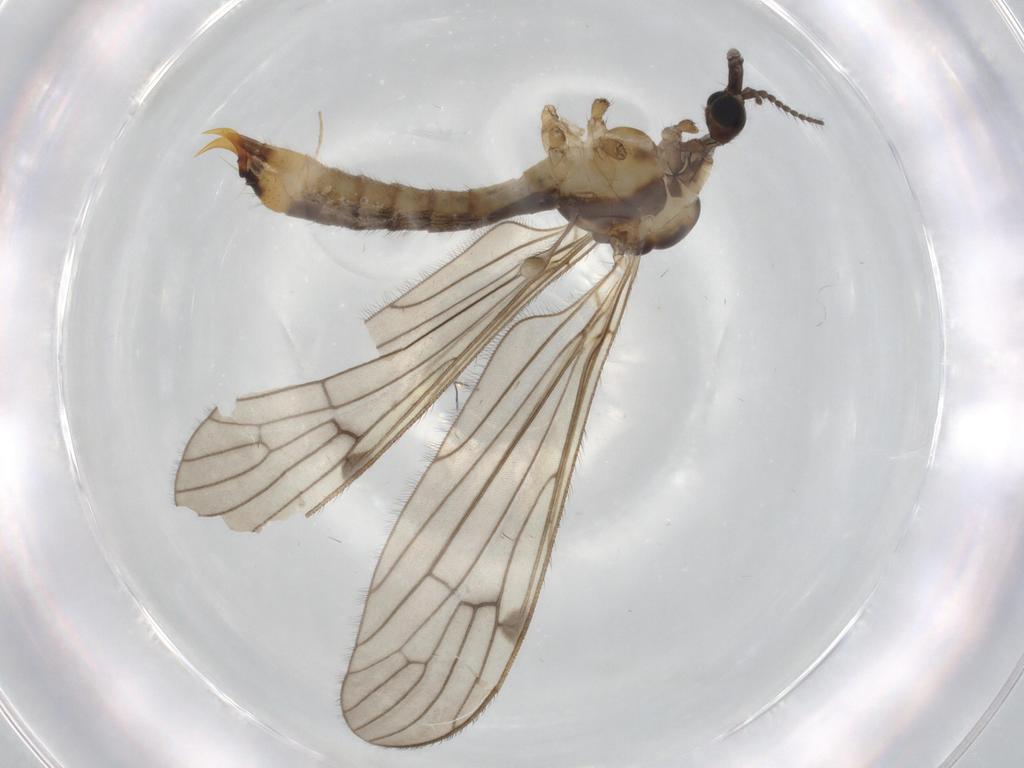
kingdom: Animalia
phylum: Arthropoda
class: Insecta
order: Diptera
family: Limoniidae
